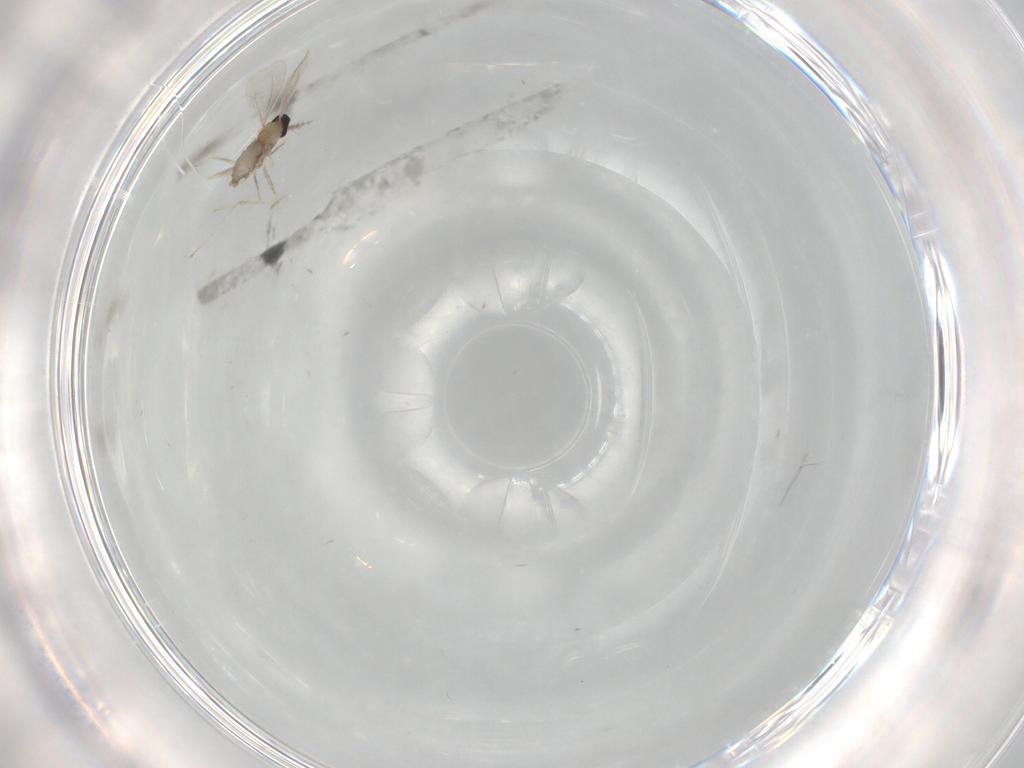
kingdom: Animalia
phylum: Arthropoda
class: Insecta
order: Diptera
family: Cecidomyiidae
